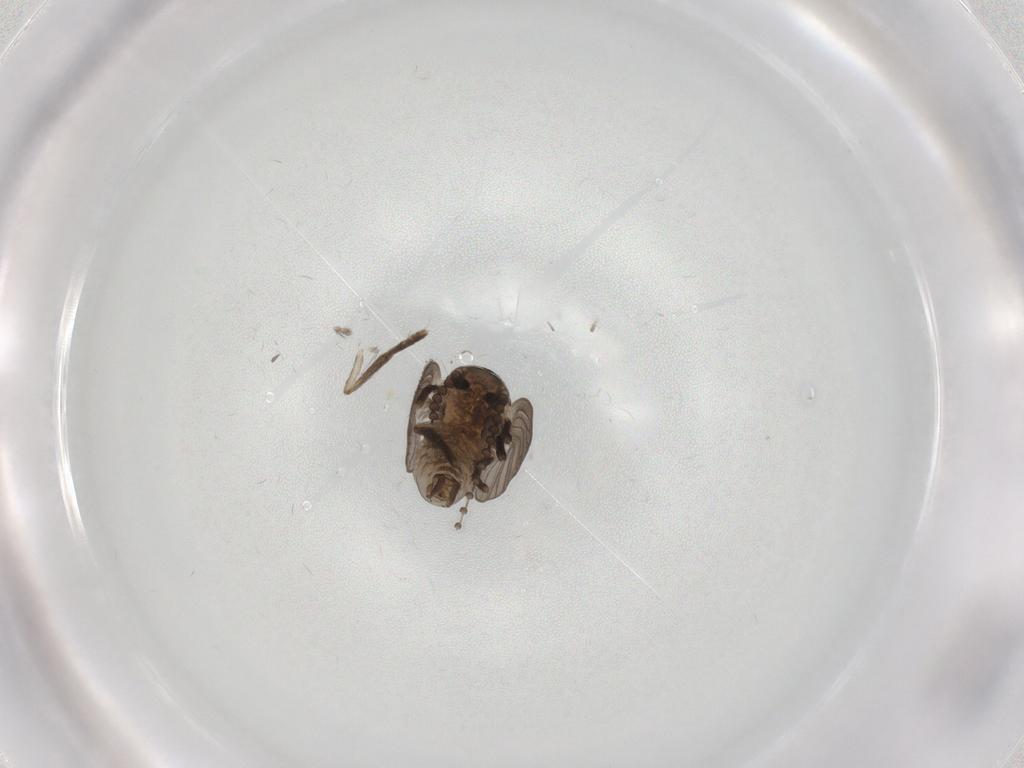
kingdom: Animalia
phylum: Arthropoda
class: Insecta
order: Diptera
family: Psychodidae
